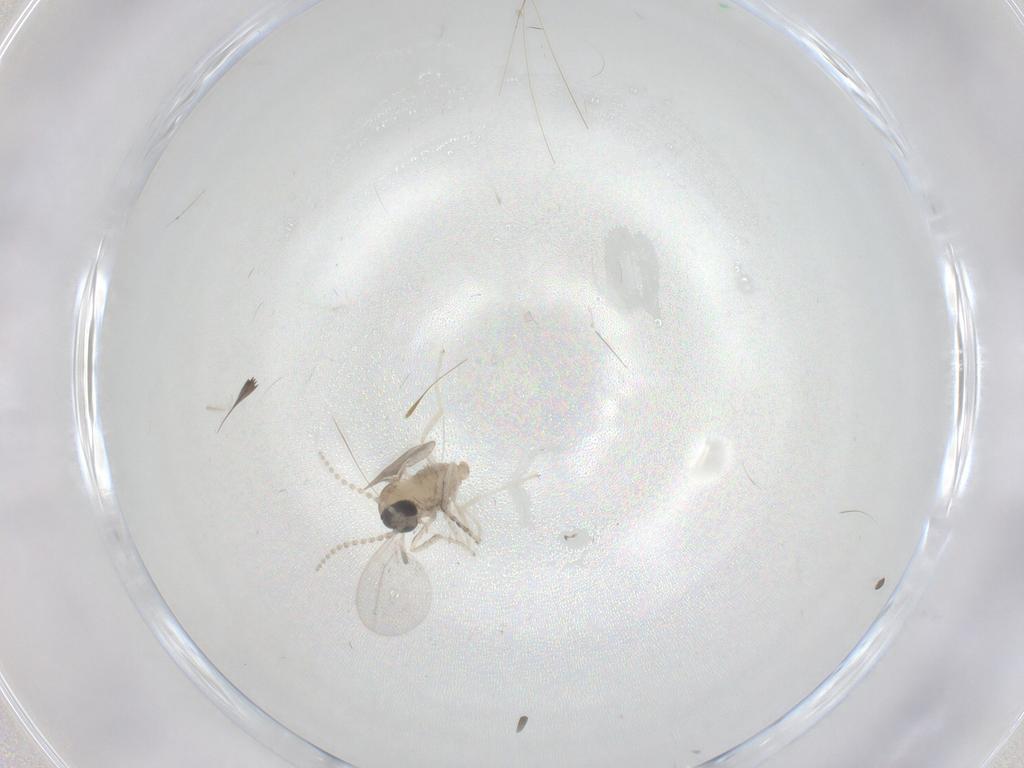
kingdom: Animalia
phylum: Arthropoda
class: Insecta
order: Diptera
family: Cecidomyiidae
